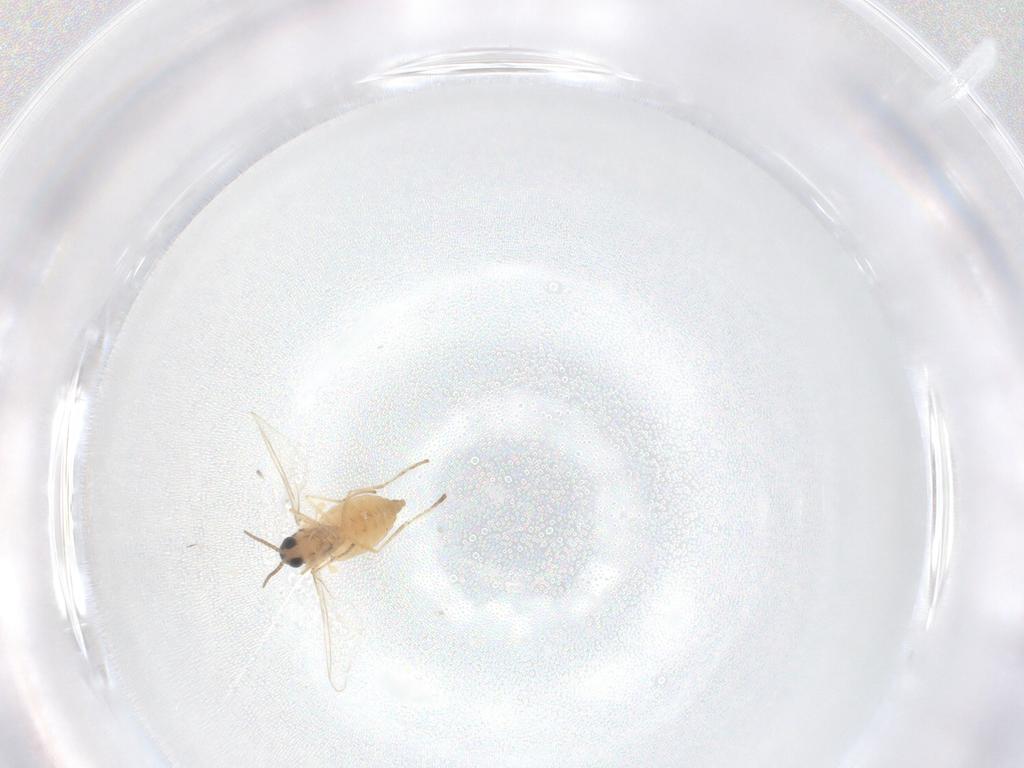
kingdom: Animalia
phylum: Arthropoda
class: Insecta
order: Diptera
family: Cecidomyiidae
